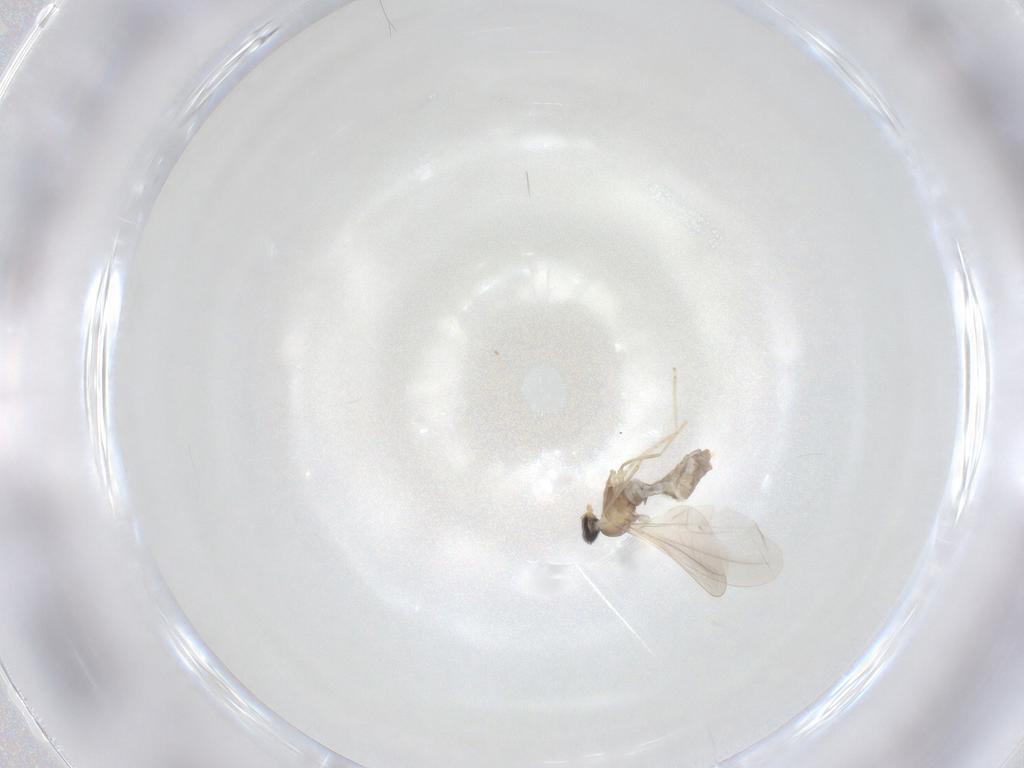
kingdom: Animalia
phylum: Arthropoda
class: Insecta
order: Diptera
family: Cecidomyiidae
